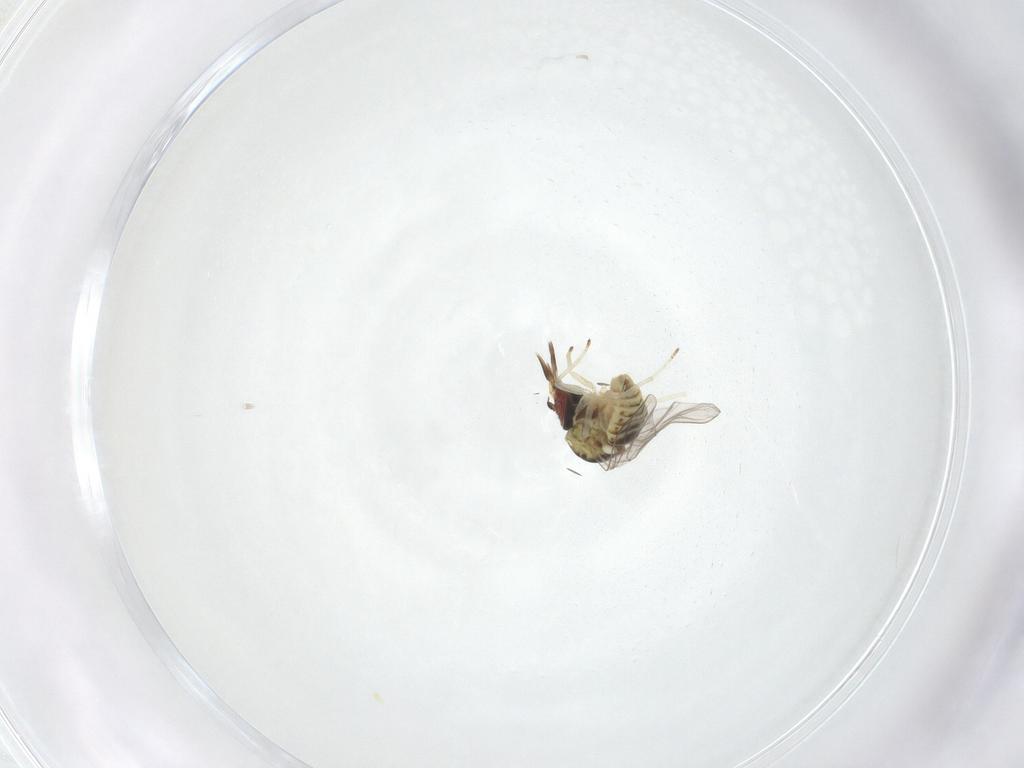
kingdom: Animalia
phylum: Arthropoda
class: Insecta
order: Diptera
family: Mythicomyiidae
